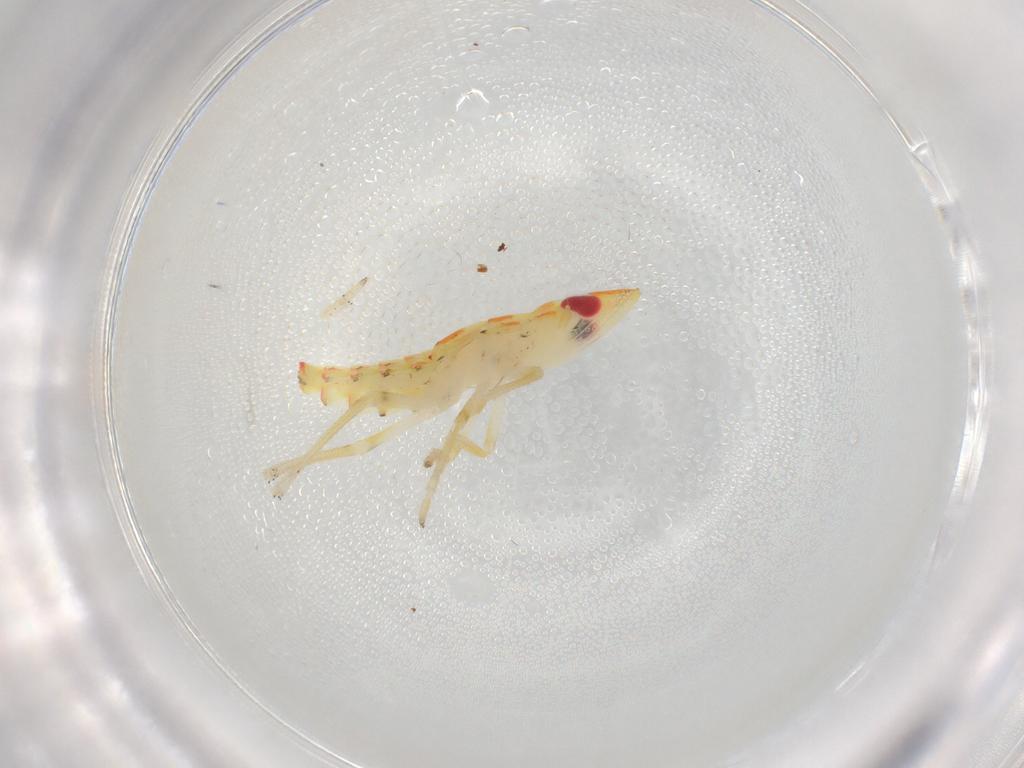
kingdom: Animalia
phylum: Arthropoda
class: Insecta
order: Hemiptera
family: Tropiduchidae
